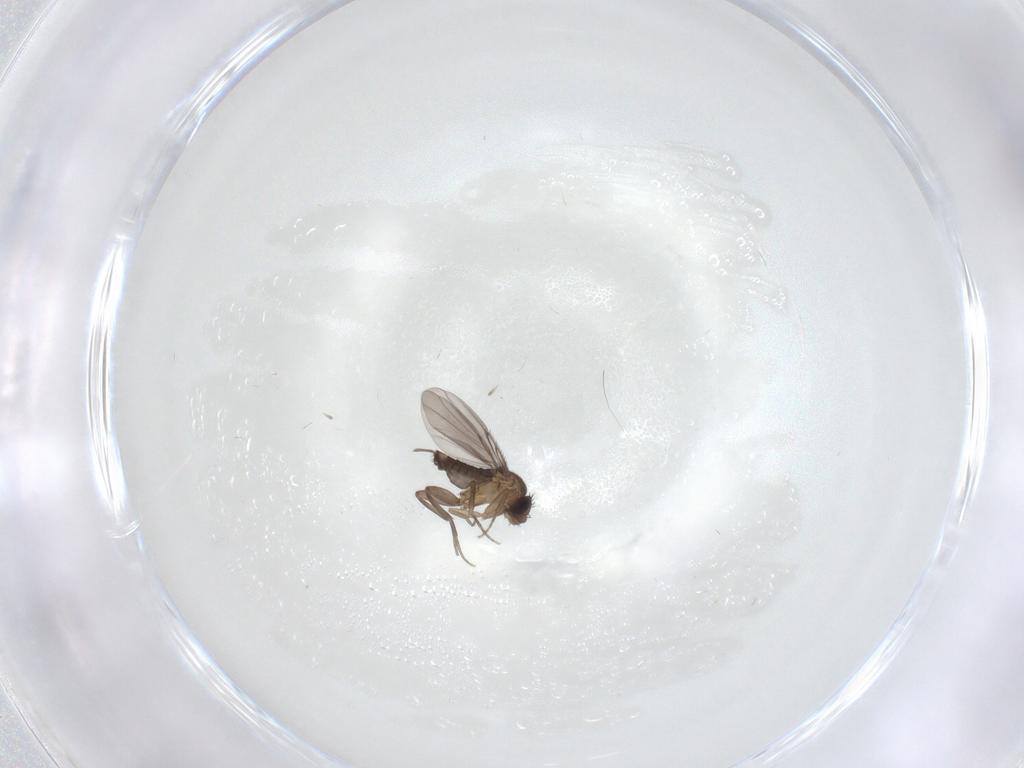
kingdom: Animalia
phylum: Arthropoda
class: Insecta
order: Diptera
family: Phoridae
